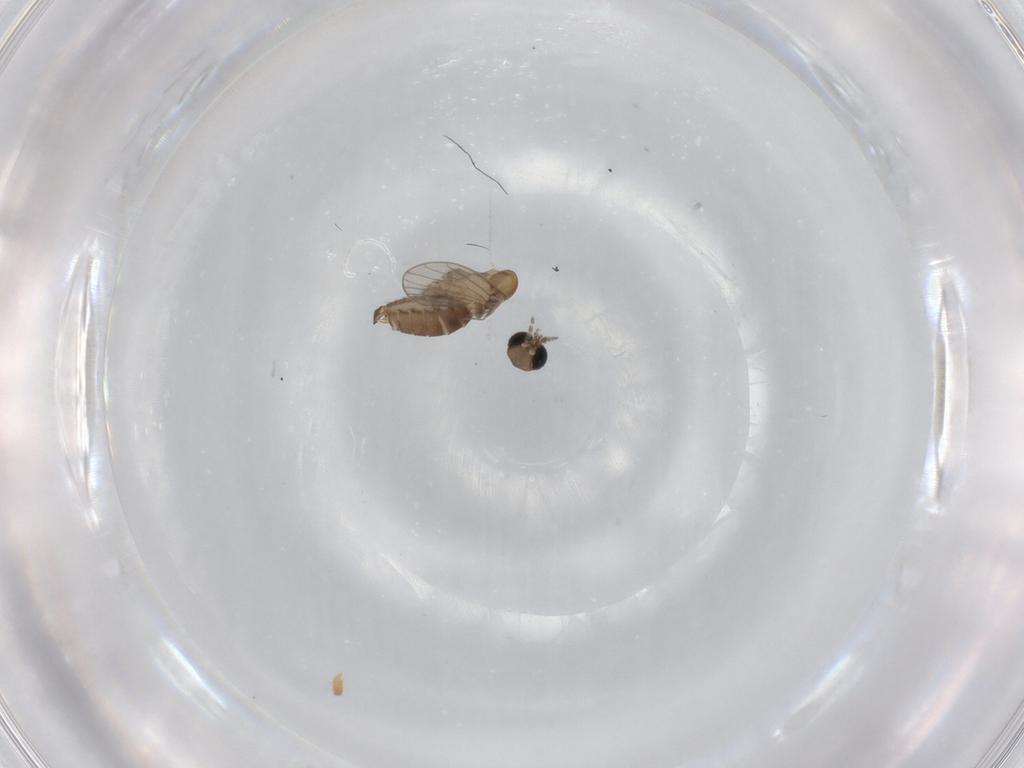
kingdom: Animalia
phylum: Arthropoda
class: Insecta
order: Diptera
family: Psychodidae
